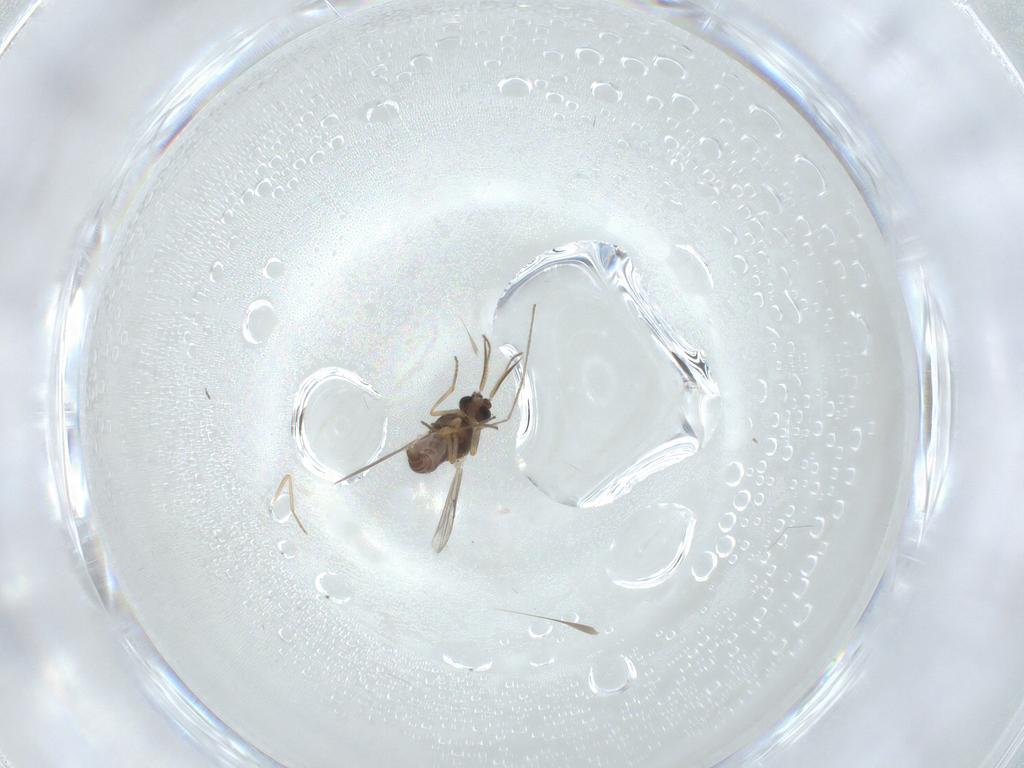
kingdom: Animalia
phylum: Arthropoda
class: Insecta
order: Diptera
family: Ceratopogonidae
